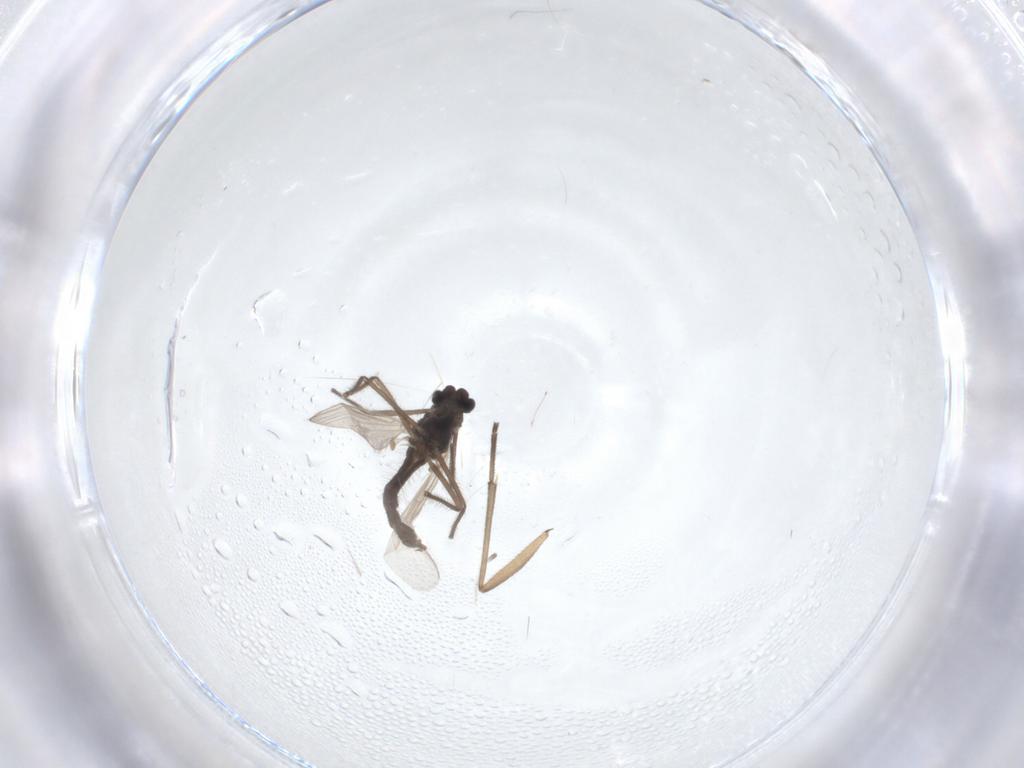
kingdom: Animalia
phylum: Arthropoda
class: Insecta
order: Diptera
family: Chironomidae
